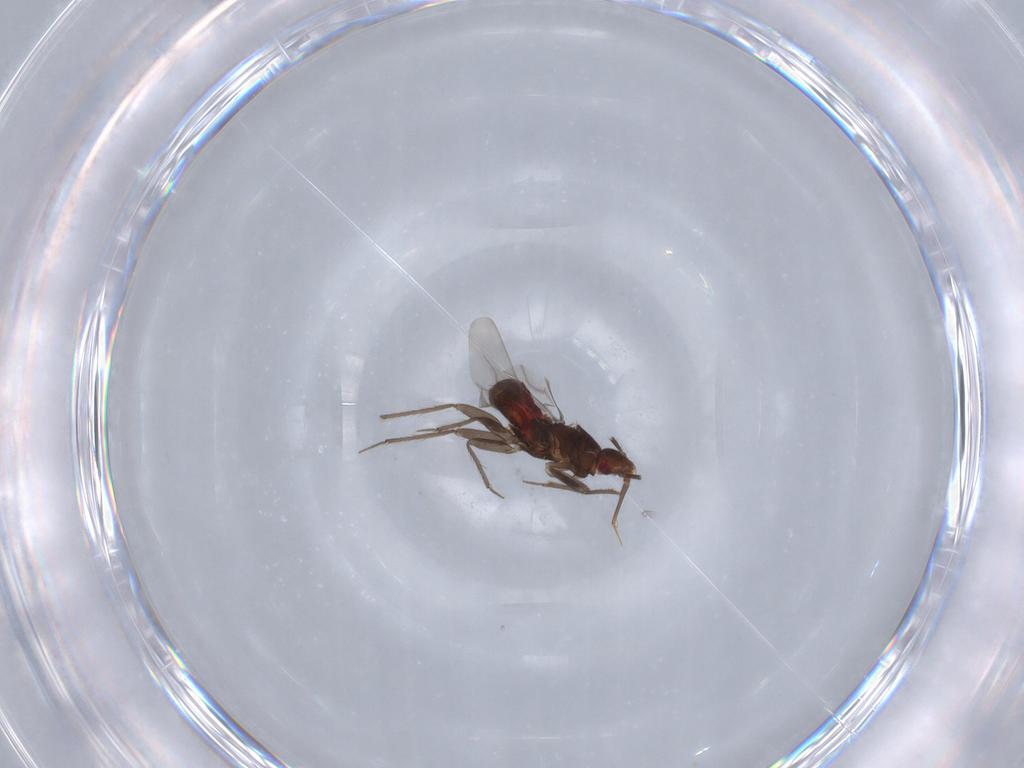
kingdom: Animalia
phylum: Arthropoda
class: Insecta
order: Hemiptera
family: Ceratocombidae
